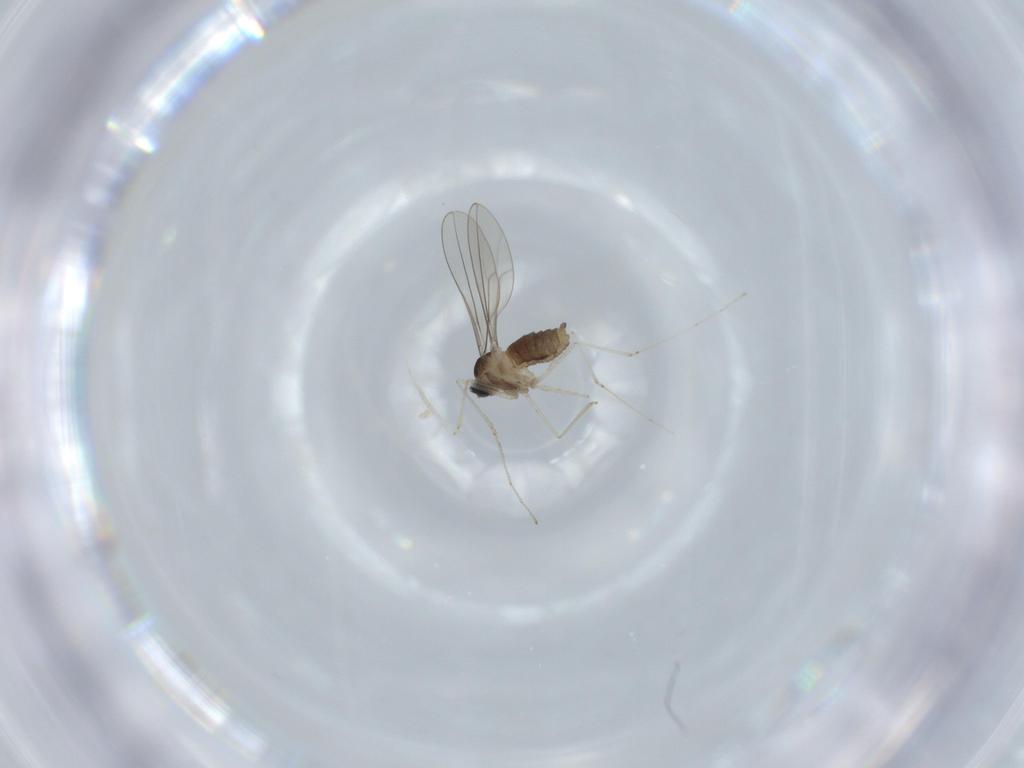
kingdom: Animalia
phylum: Arthropoda
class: Insecta
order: Diptera
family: Cecidomyiidae
